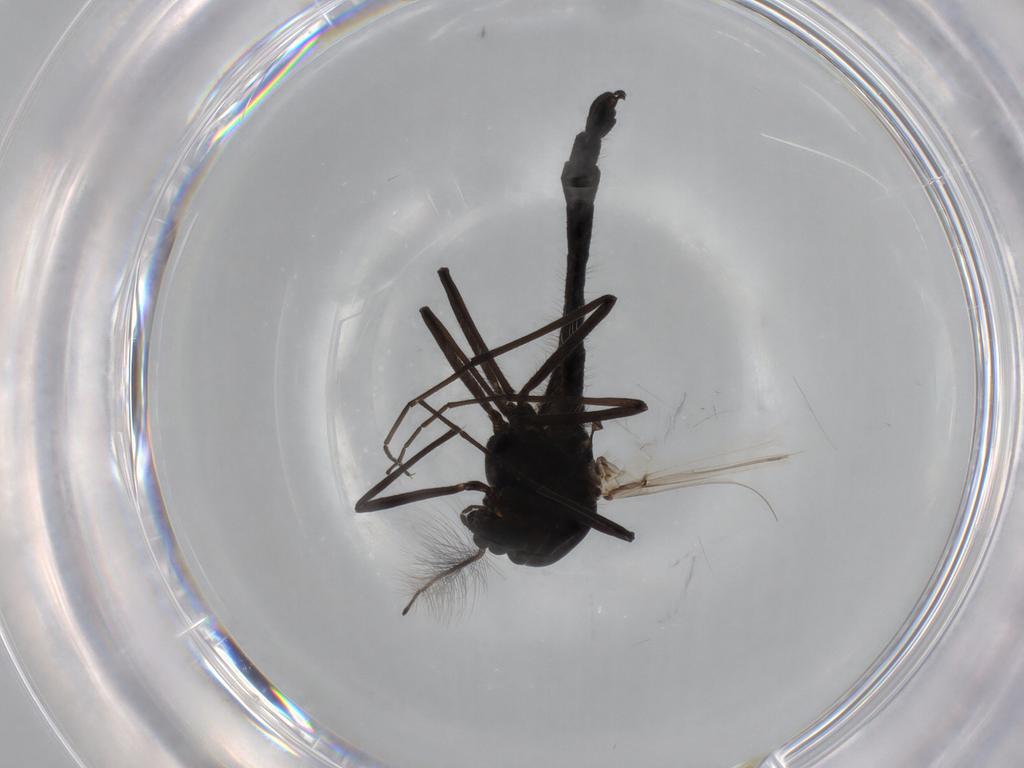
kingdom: Animalia
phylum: Arthropoda
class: Insecta
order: Diptera
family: Chironomidae
